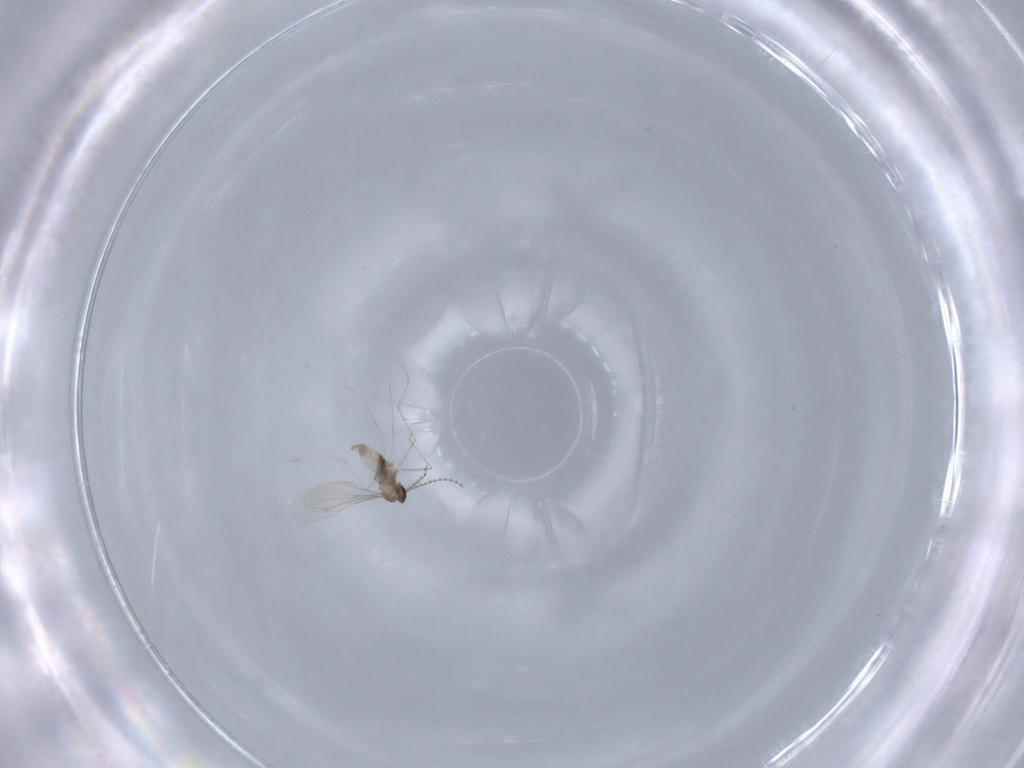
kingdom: Animalia
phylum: Arthropoda
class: Insecta
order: Diptera
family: Cecidomyiidae
